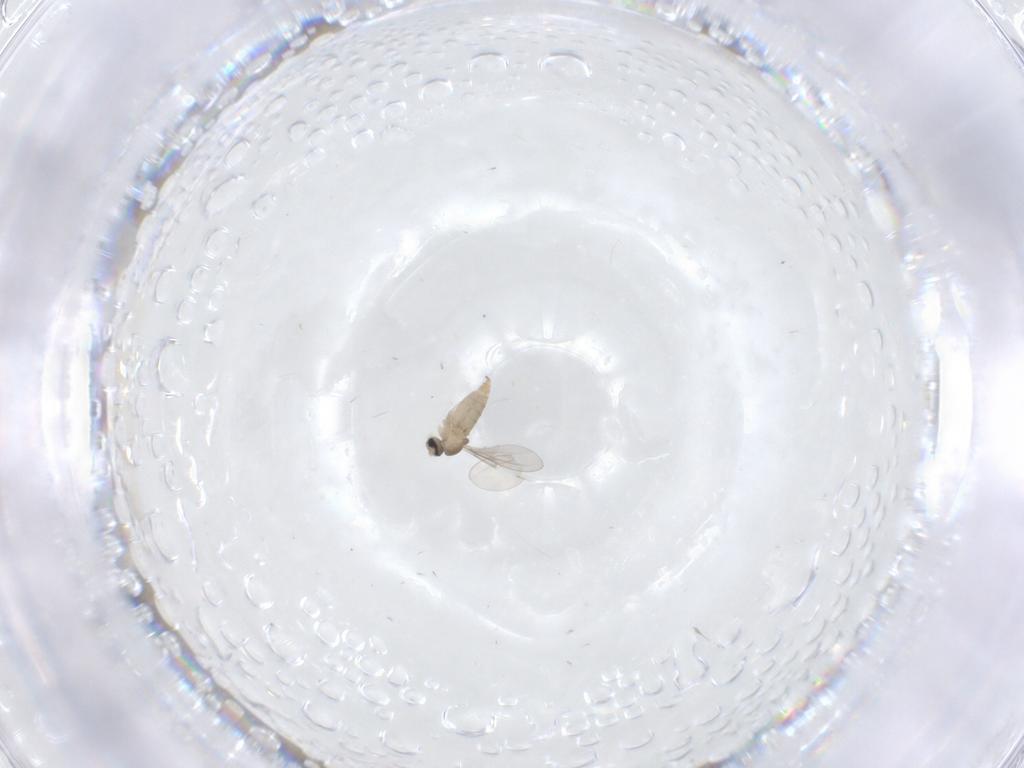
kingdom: Animalia
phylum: Arthropoda
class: Insecta
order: Diptera
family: Cecidomyiidae
